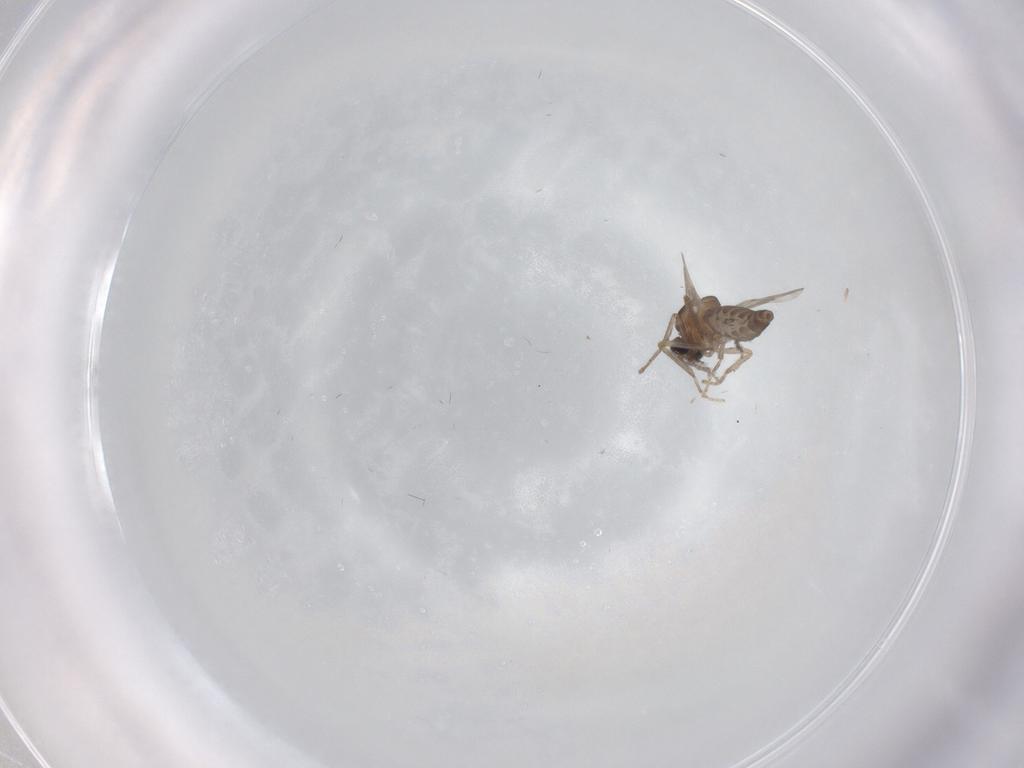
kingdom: Animalia
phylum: Arthropoda
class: Insecta
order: Diptera
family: Ceratopogonidae
